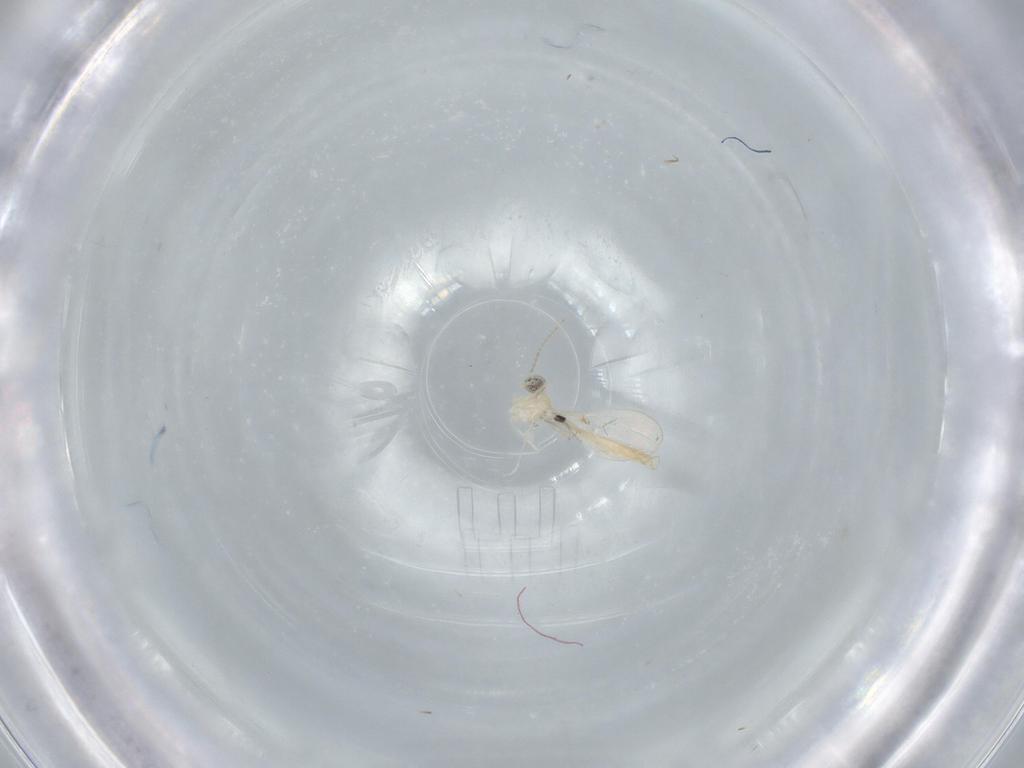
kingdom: Animalia
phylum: Arthropoda
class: Insecta
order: Diptera
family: Cecidomyiidae
